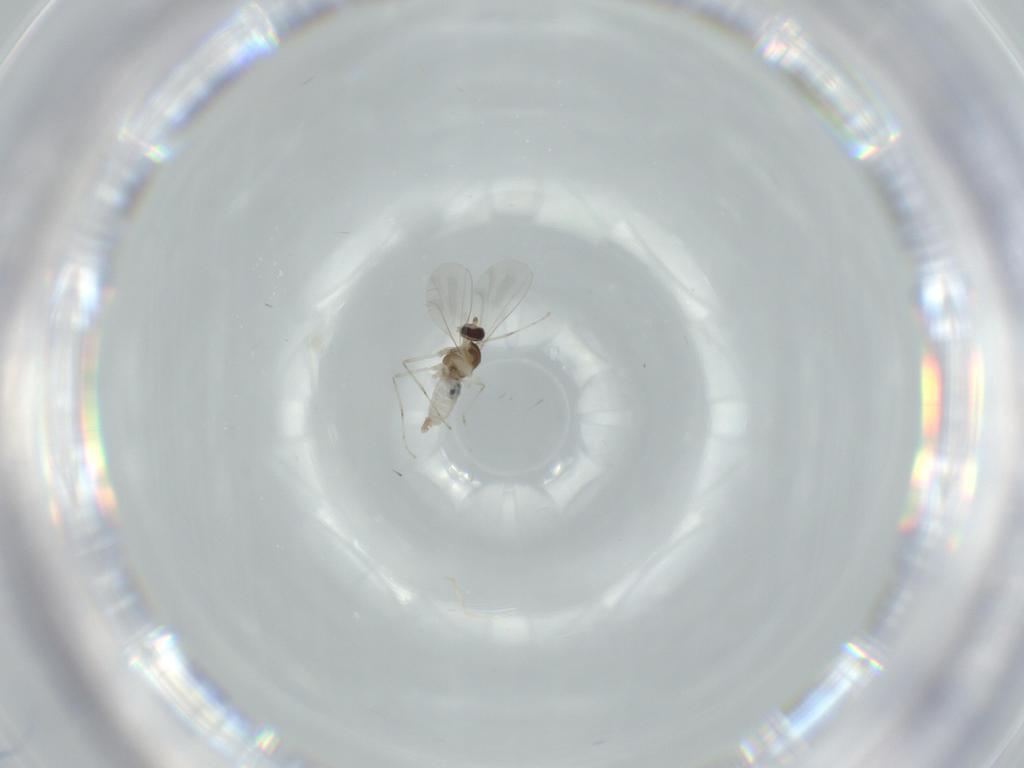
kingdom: Animalia
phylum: Arthropoda
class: Insecta
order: Diptera
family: Cecidomyiidae
